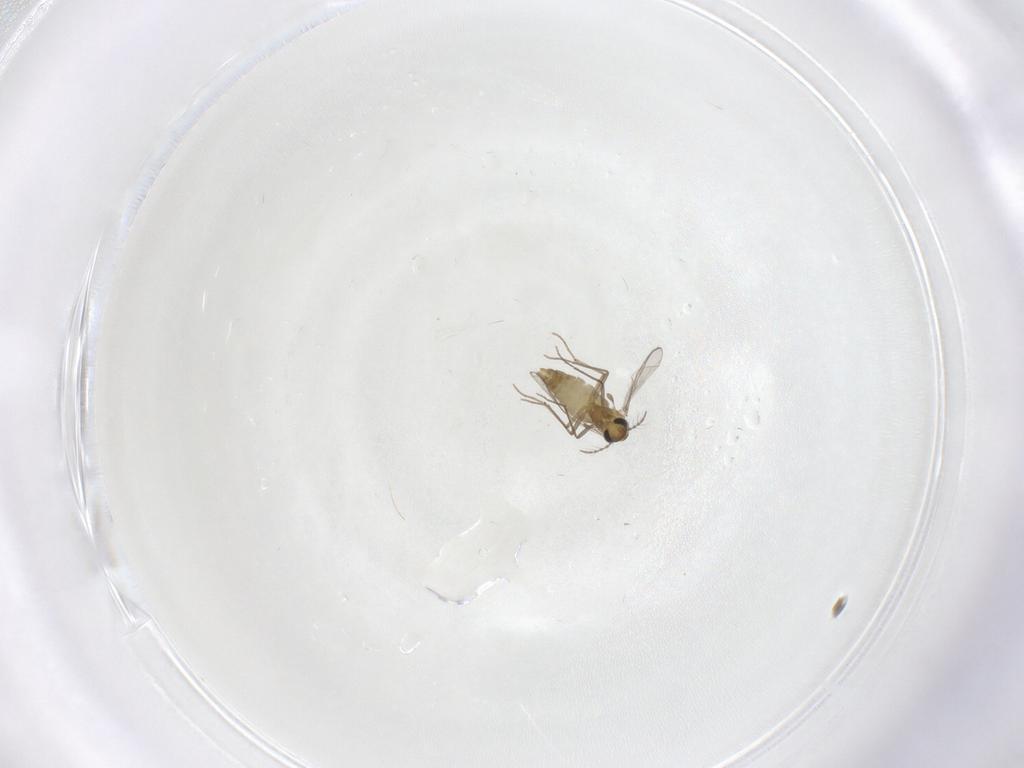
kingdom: Animalia
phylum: Arthropoda
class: Insecta
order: Diptera
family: Chironomidae
